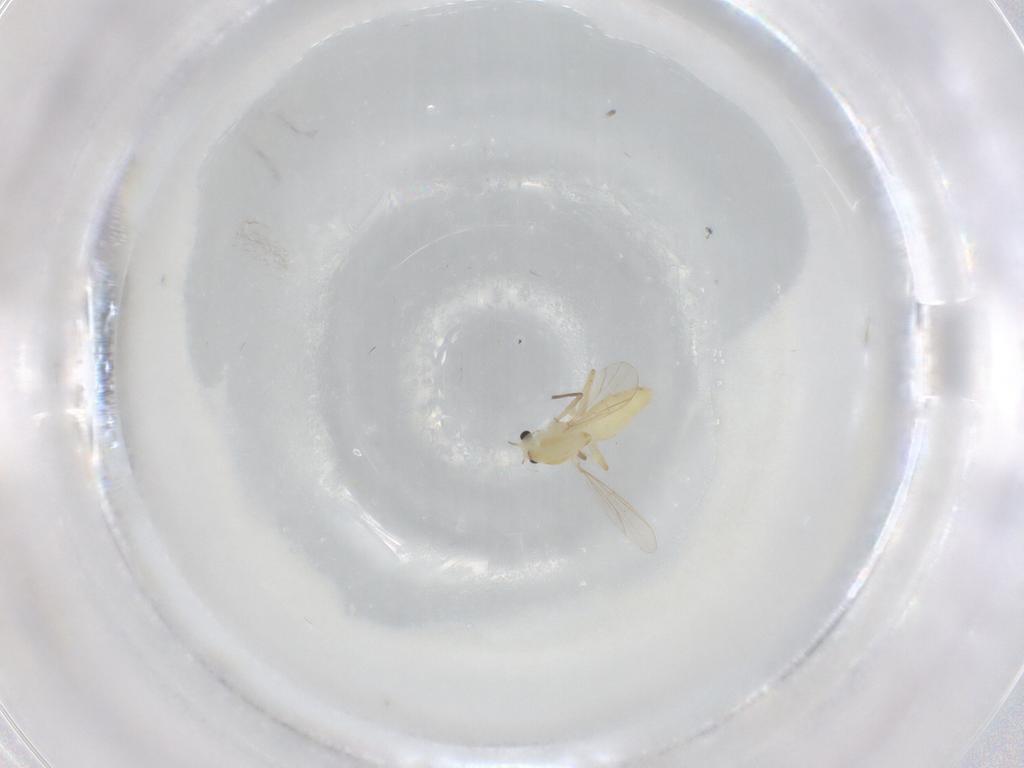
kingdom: Animalia
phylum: Arthropoda
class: Insecta
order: Diptera
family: Chironomidae
